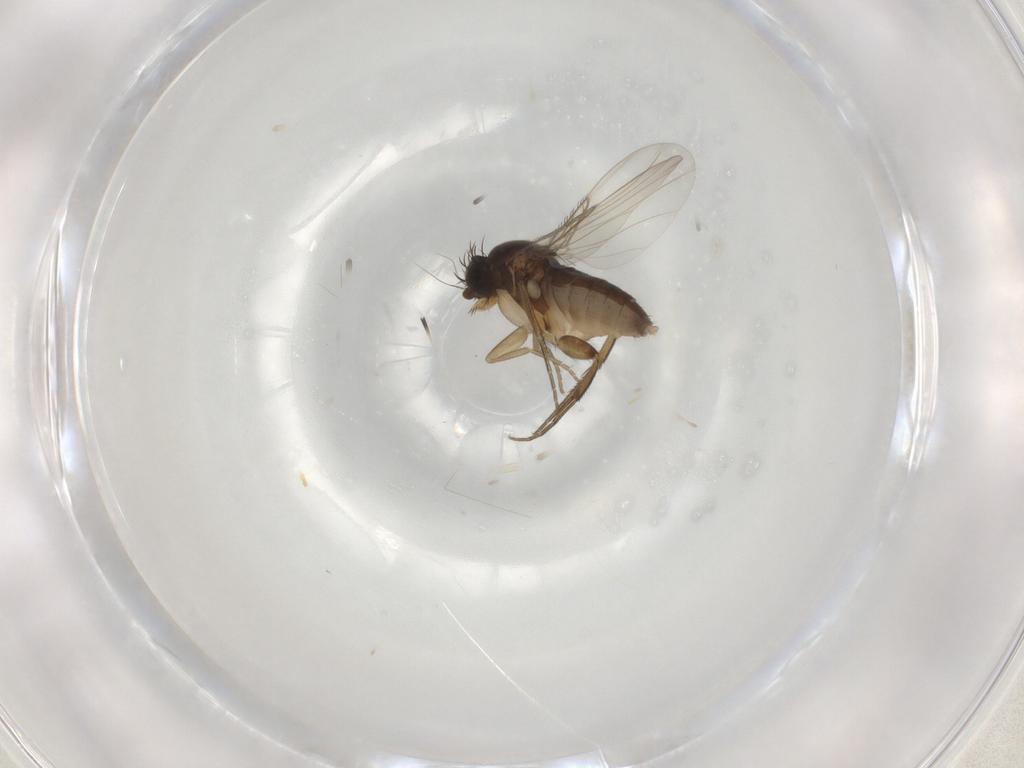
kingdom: Animalia
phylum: Arthropoda
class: Insecta
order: Diptera
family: Phoridae
